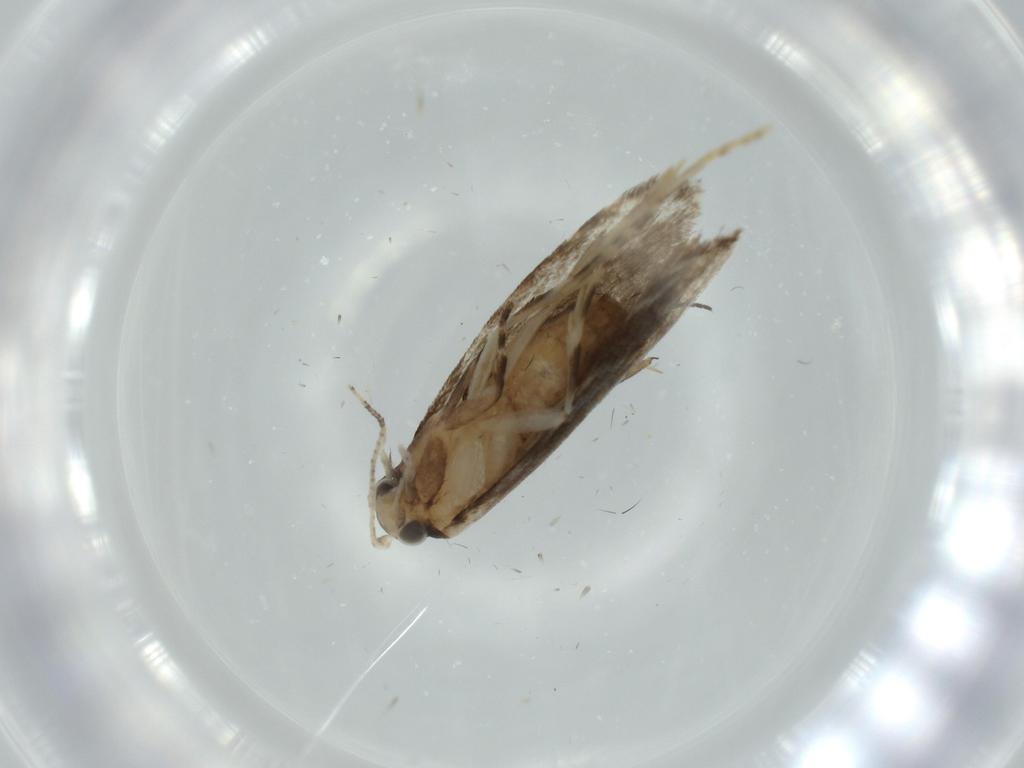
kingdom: Animalia
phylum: Arthropoda
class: Insecta
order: Lepidoptera
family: Tineidae
